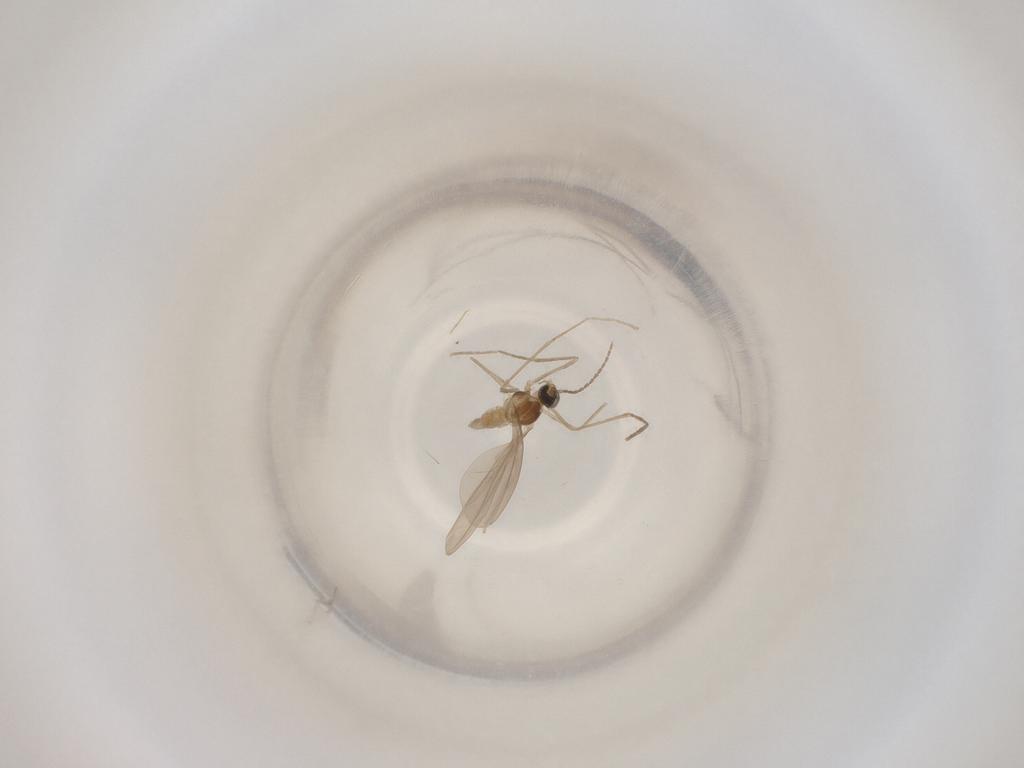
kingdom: Animalia
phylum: Arthropoda
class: Insecta
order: Diptera
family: Cecidomyiidae
